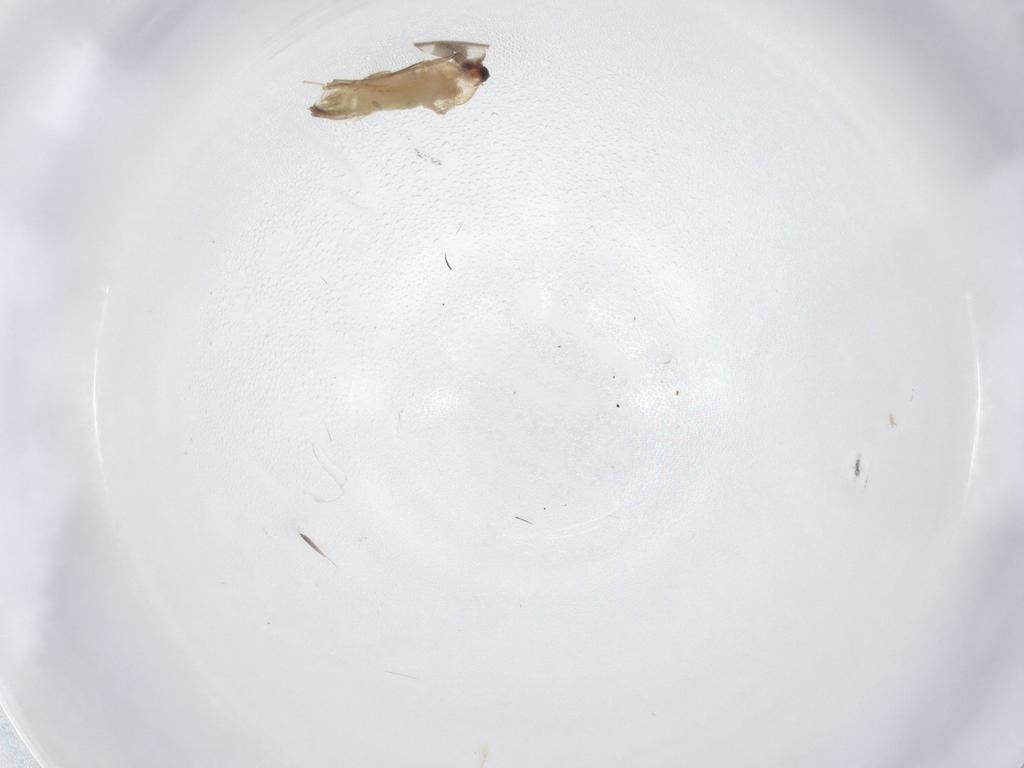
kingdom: Animalia
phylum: Arthropoda
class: Insecta
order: Diptera
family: Chironomidae
